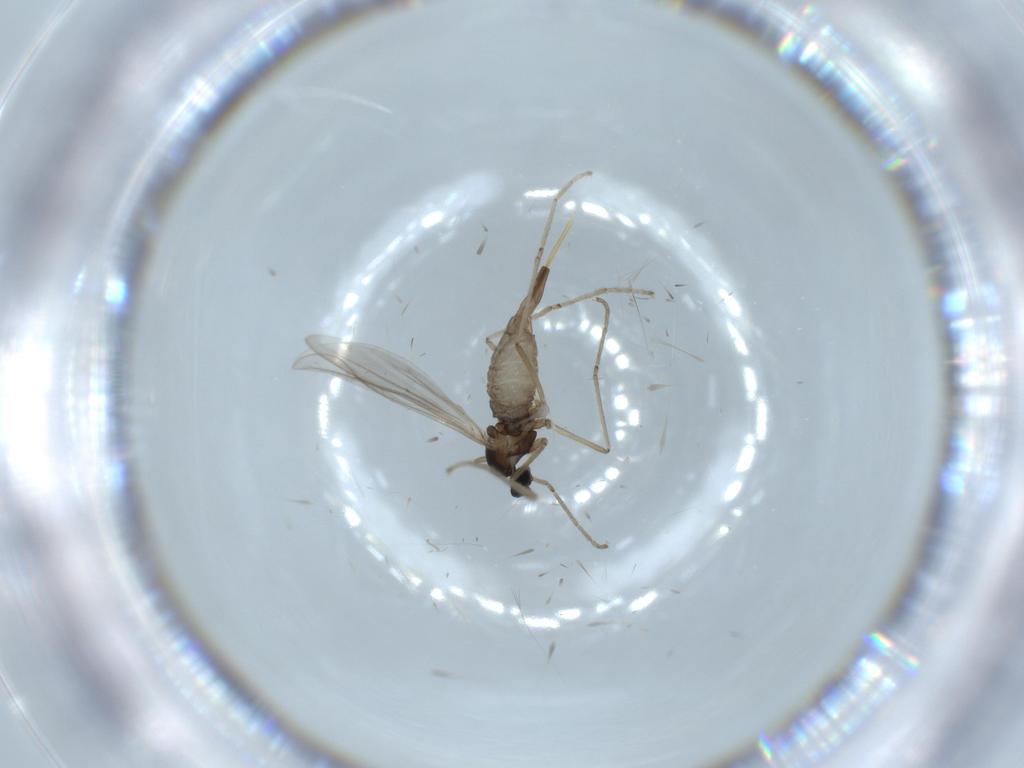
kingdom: Animalia
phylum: Arthropoda
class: Insecta
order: Diptera
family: Cecidomyiidae
